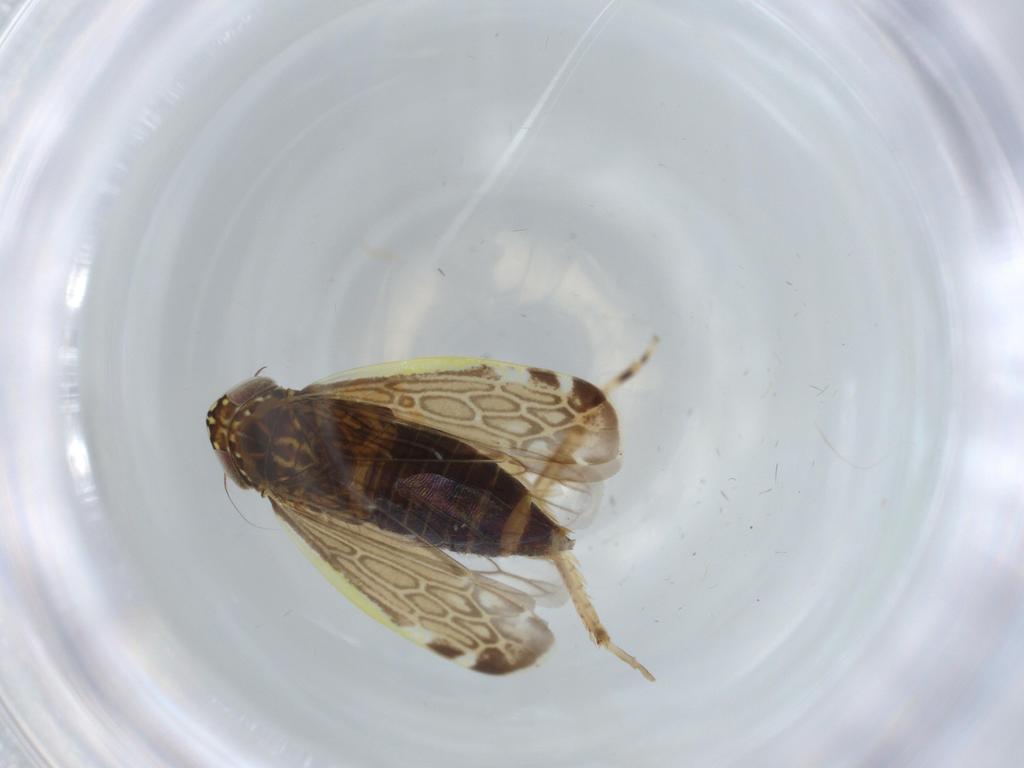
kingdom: Animalia
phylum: Arthropoda
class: Insecta
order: Hemiptera
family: Cicadellidae
